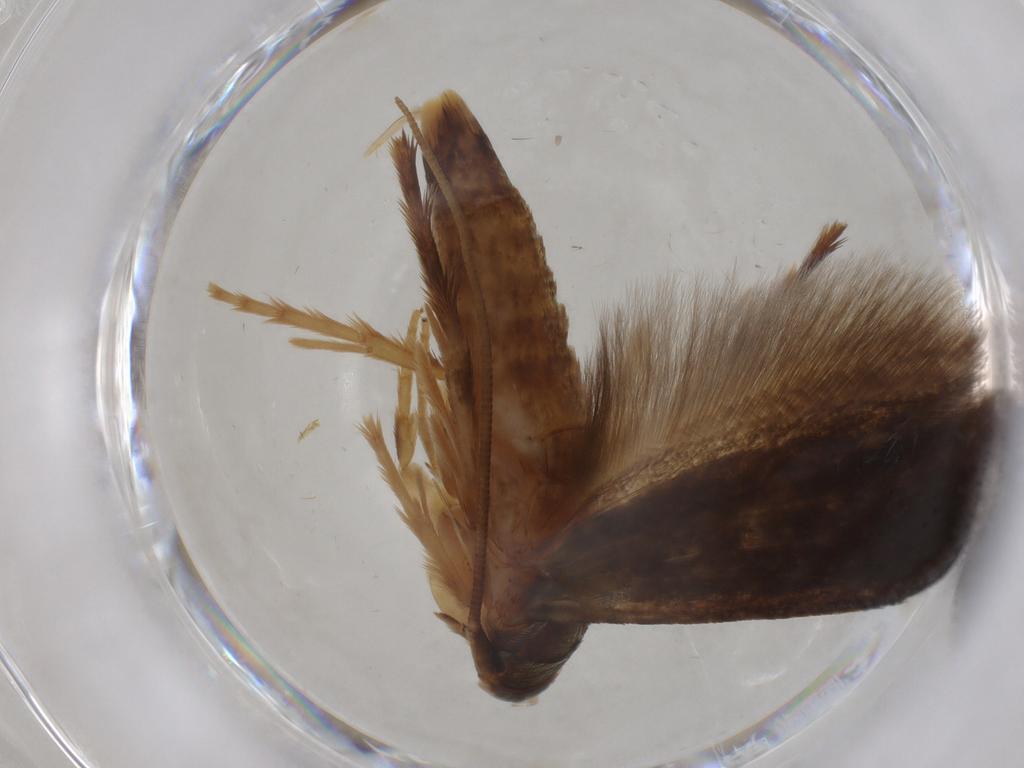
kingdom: Animalia
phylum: Arthropoda
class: Insecta
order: Lepidoptera
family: Tineidae
